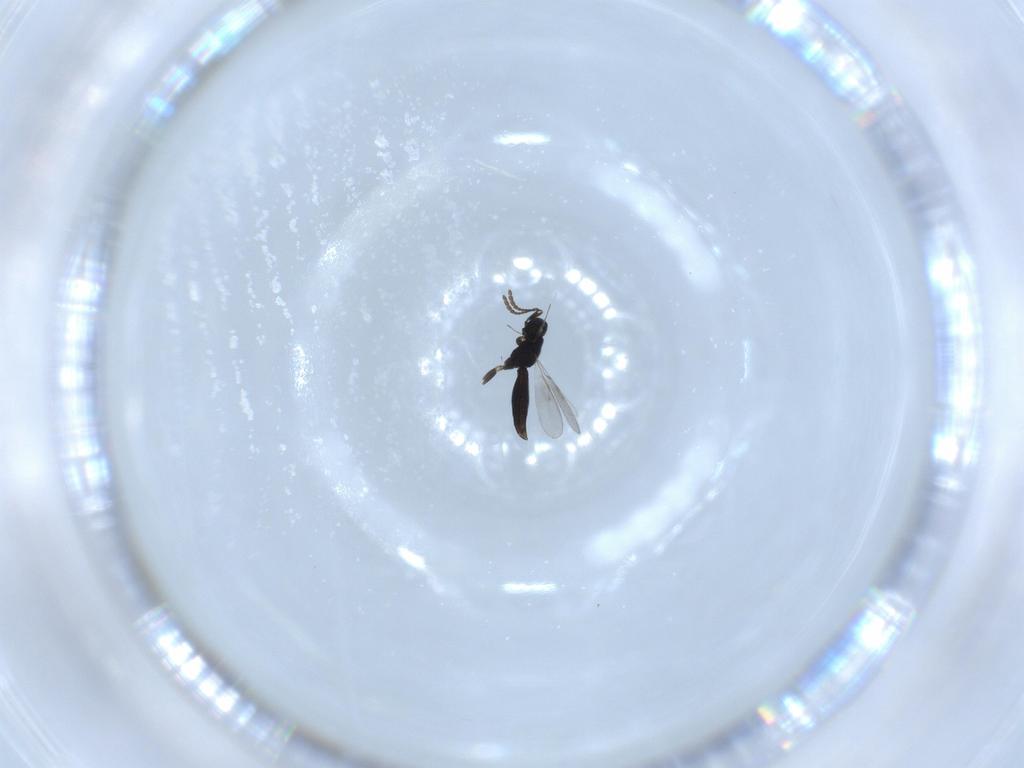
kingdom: Animalia
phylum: Arthropoda
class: Insecta
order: Hymenoptera
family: Scelionidae
